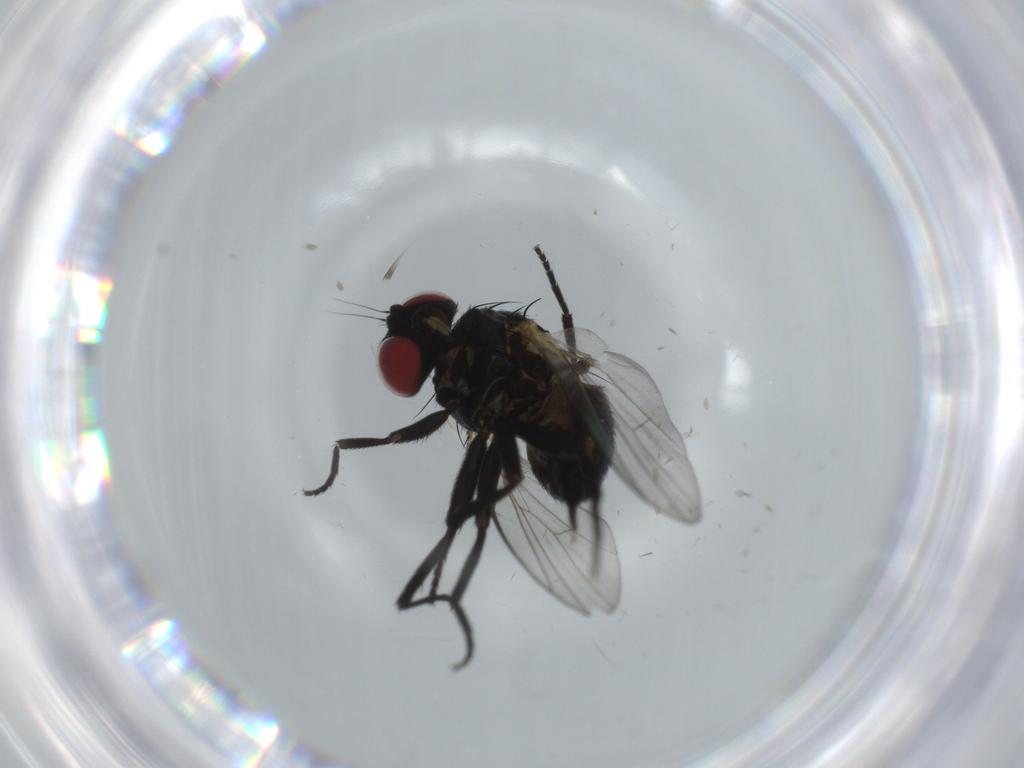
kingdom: Animalia
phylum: Arthropoda
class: Insecta
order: Diptera
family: Agromyzidae
